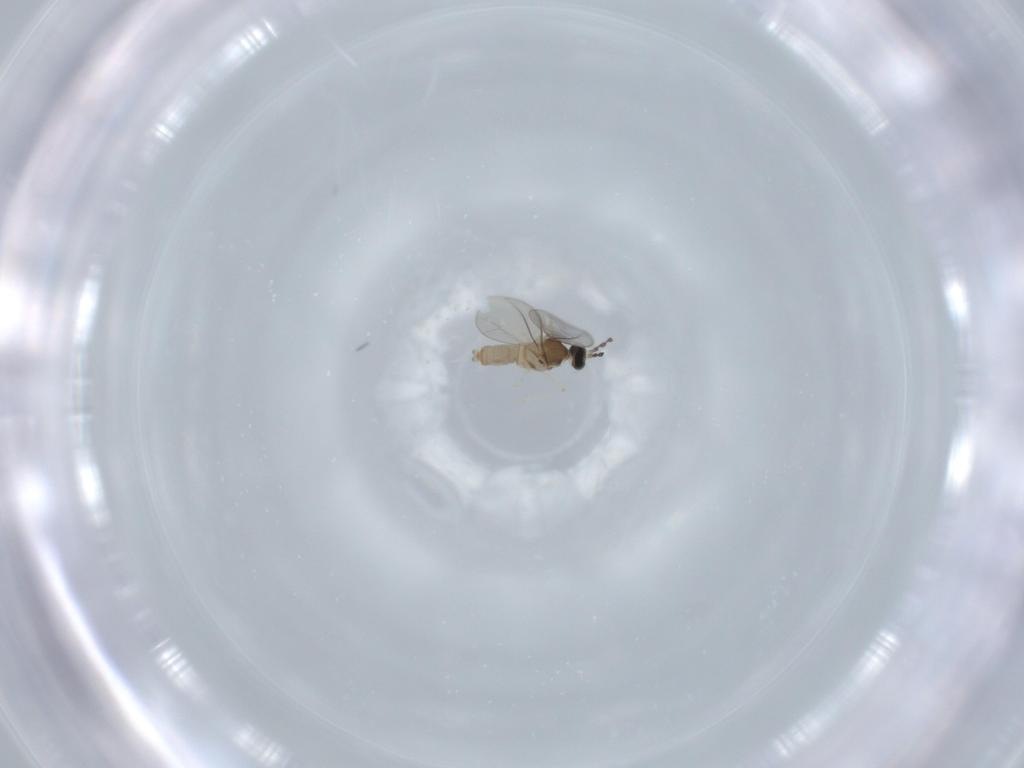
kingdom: Animalia
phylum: Arthropoda
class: Insecta
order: Diptera
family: Cecidomyiidae
